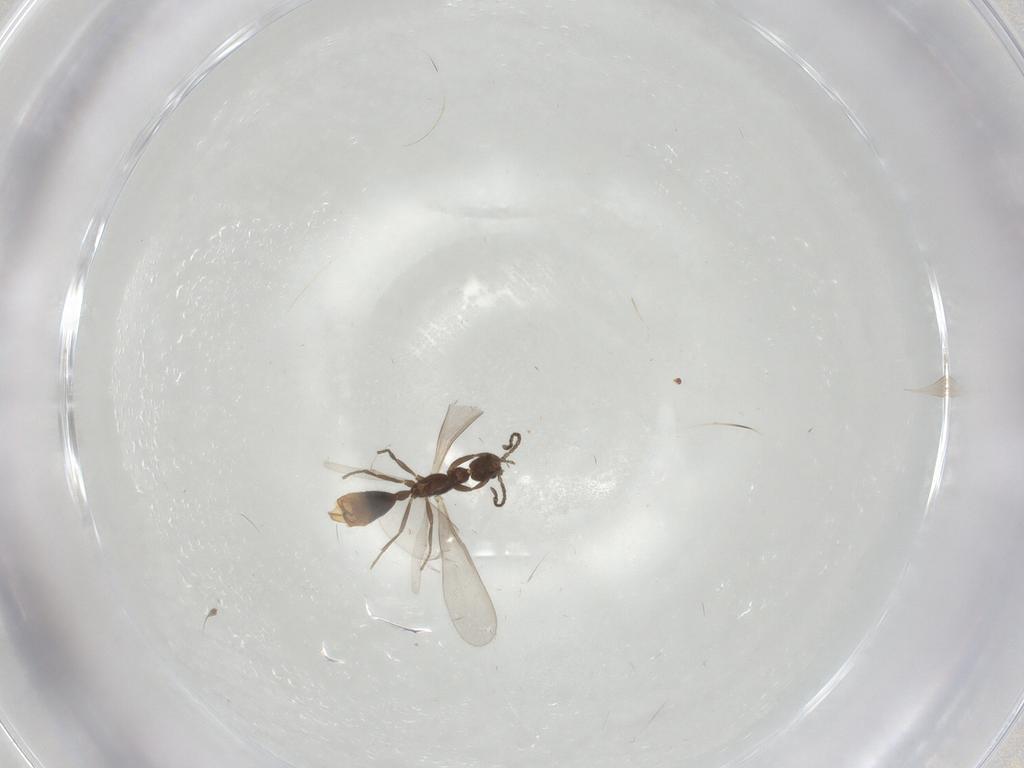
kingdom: Animalia
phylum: Arthropoda
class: Insecta
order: Hymenoptera
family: Formicidae
